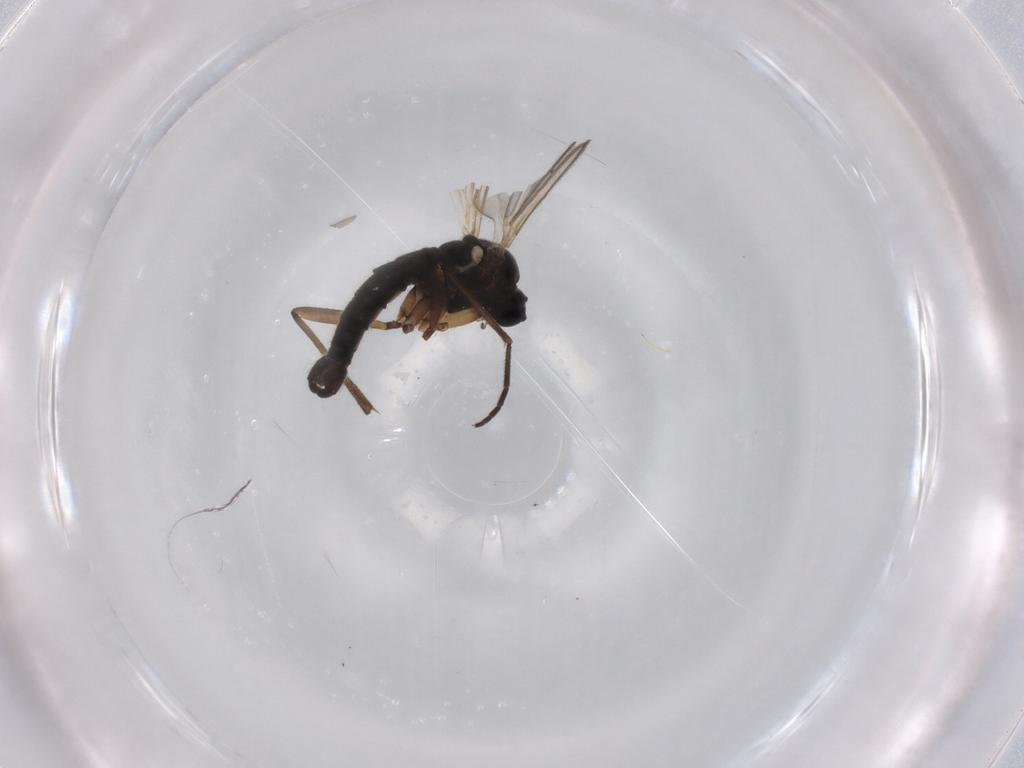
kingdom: Animalia
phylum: Arthropoda
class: Insecta
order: Diptera
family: Sciaridae
